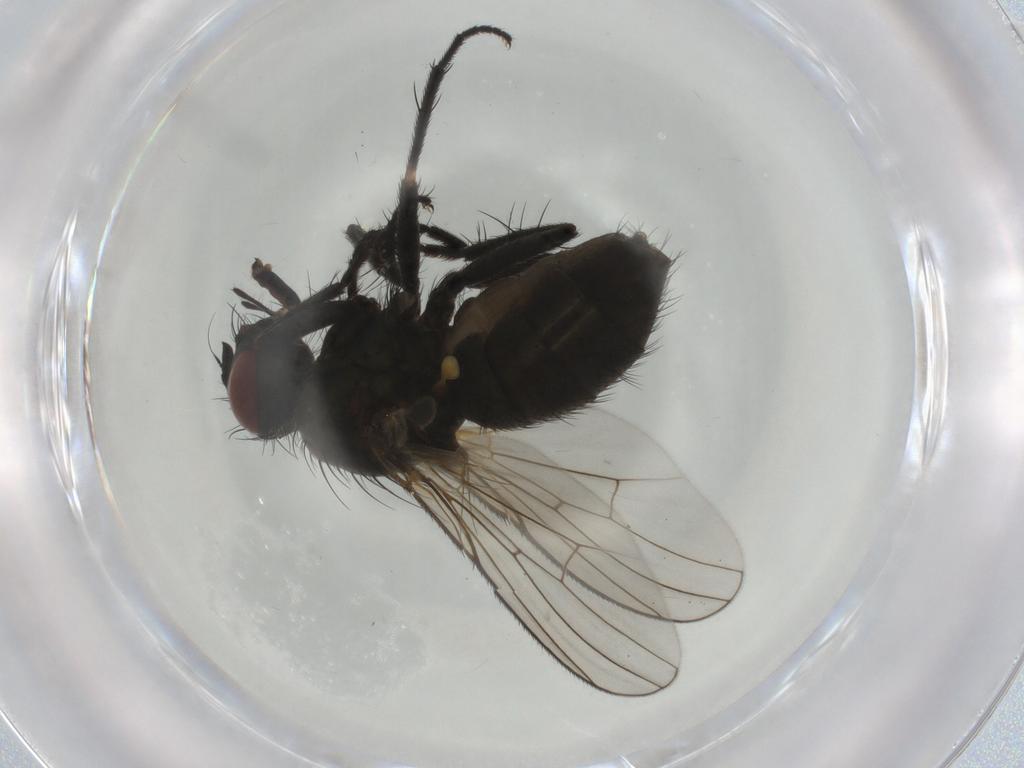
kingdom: Animalia
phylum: Arthropoda
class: Insecta
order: Diptera
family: Muscidae
